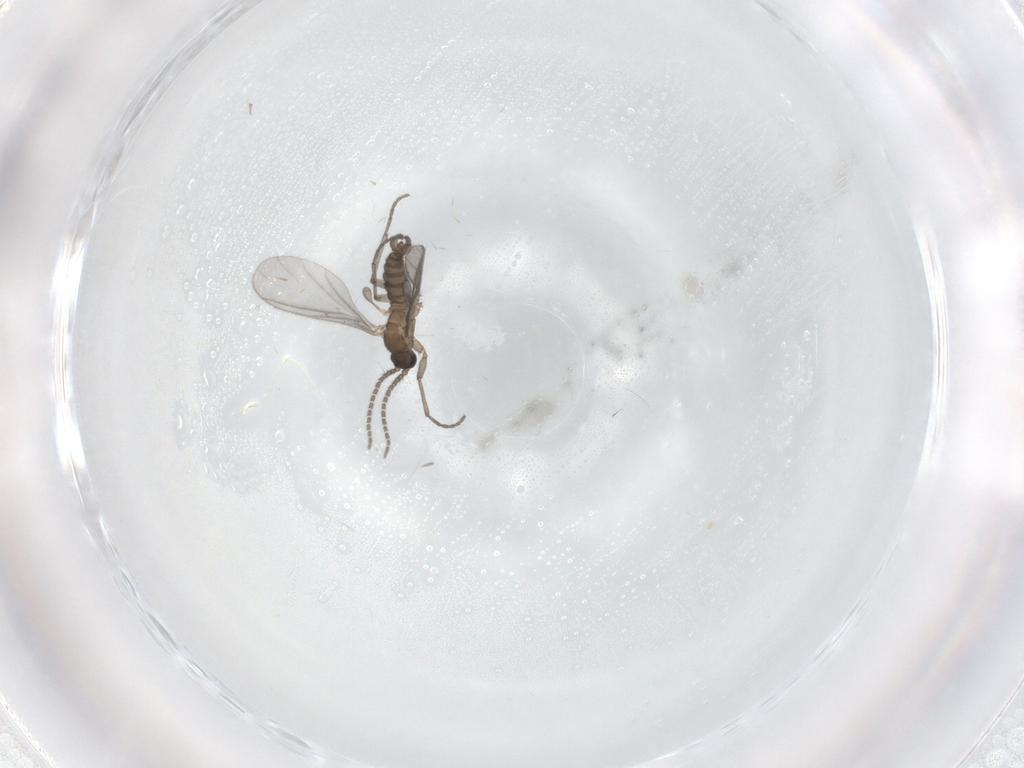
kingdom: Animalia
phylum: Arthropoda
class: Insecta
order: Diptera
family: Sciaridae
